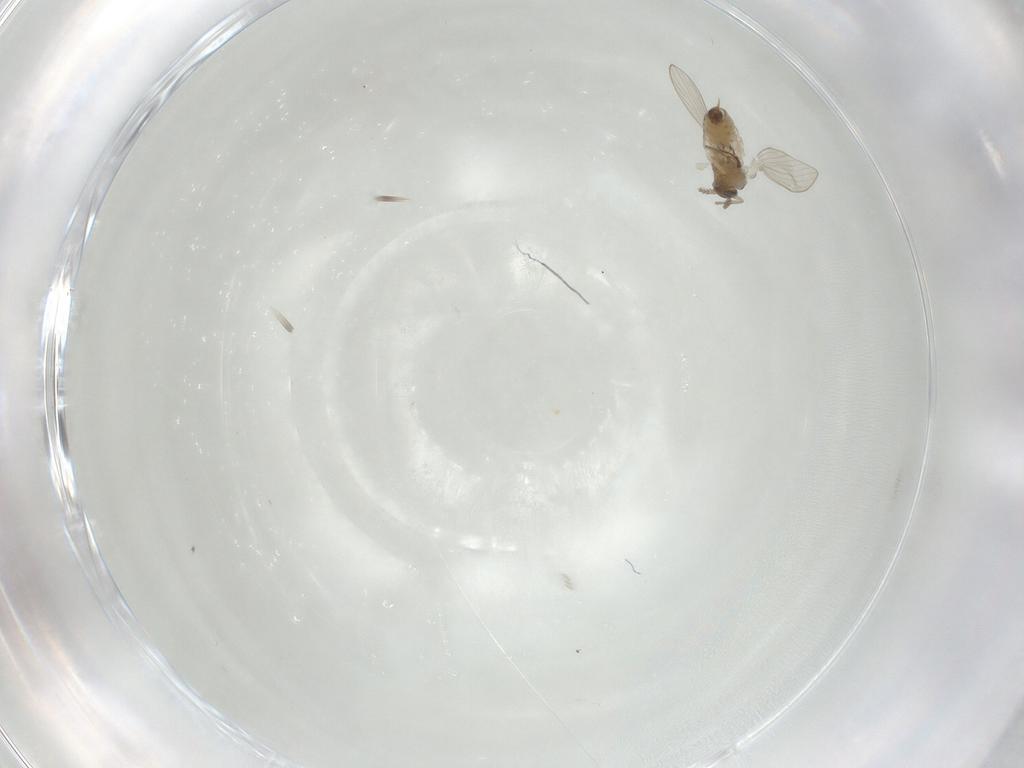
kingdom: Animalia
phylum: Arthropoda
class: Insecta
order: Diptera
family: Psychodidae
